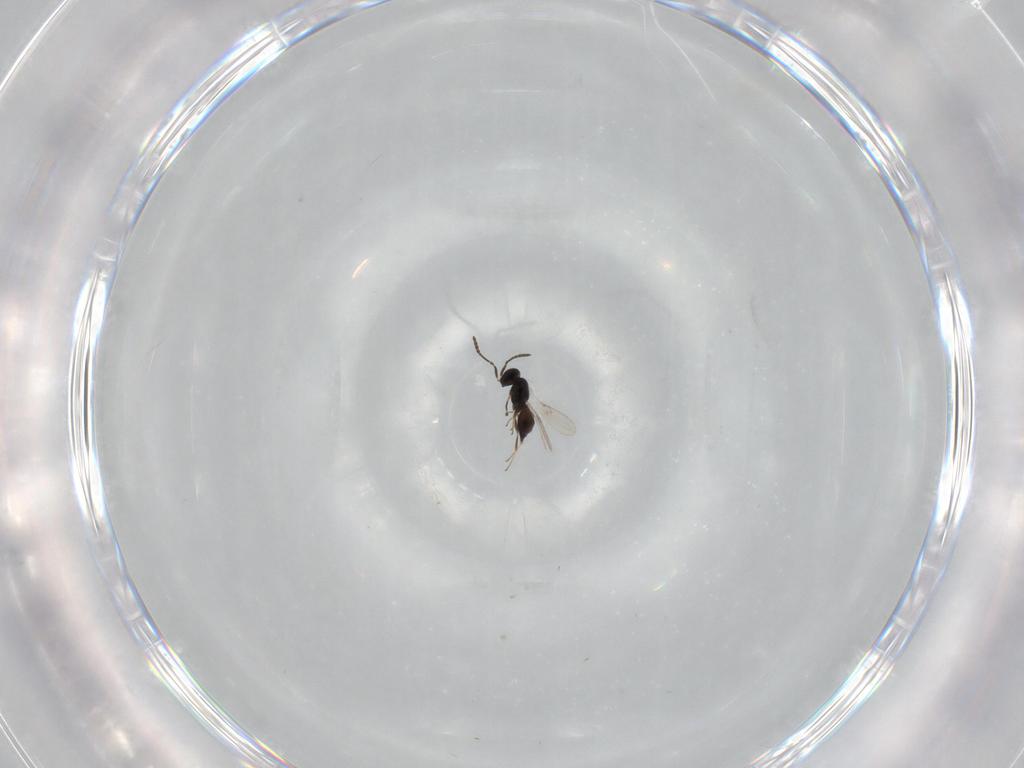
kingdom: Animalia
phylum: Arthropoda
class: Insecta
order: Hymenoptera
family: Scelionidae
